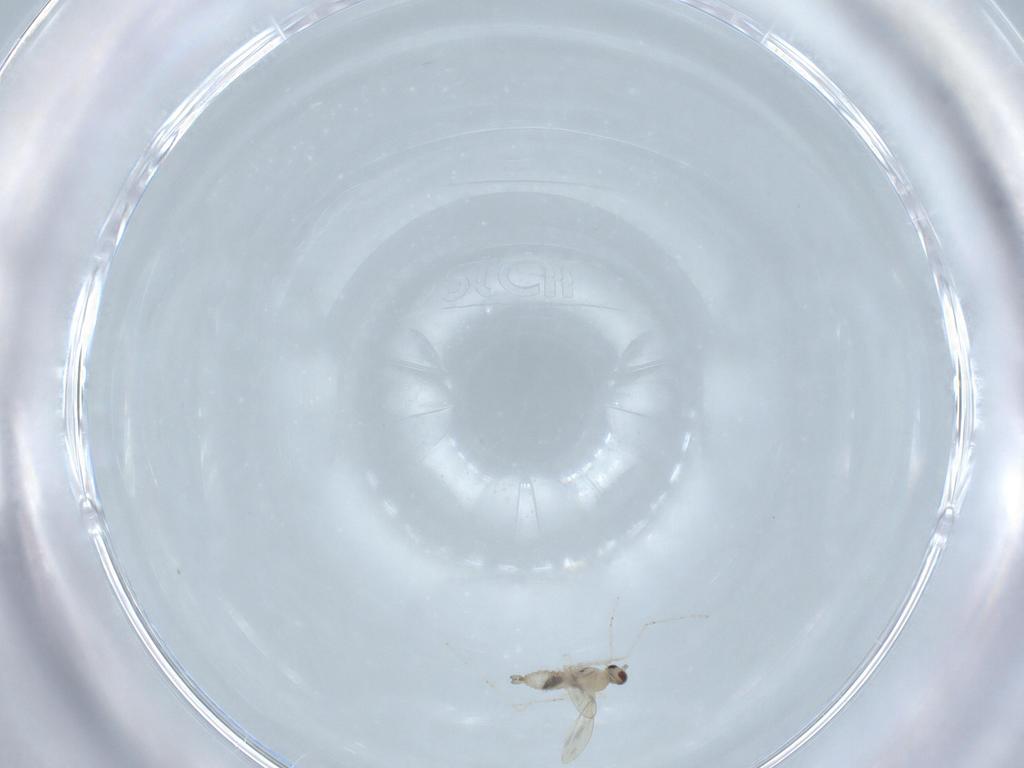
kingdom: Animalia
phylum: Arthropoda
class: Insecta
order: Diptera
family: Cecidomyiidae
